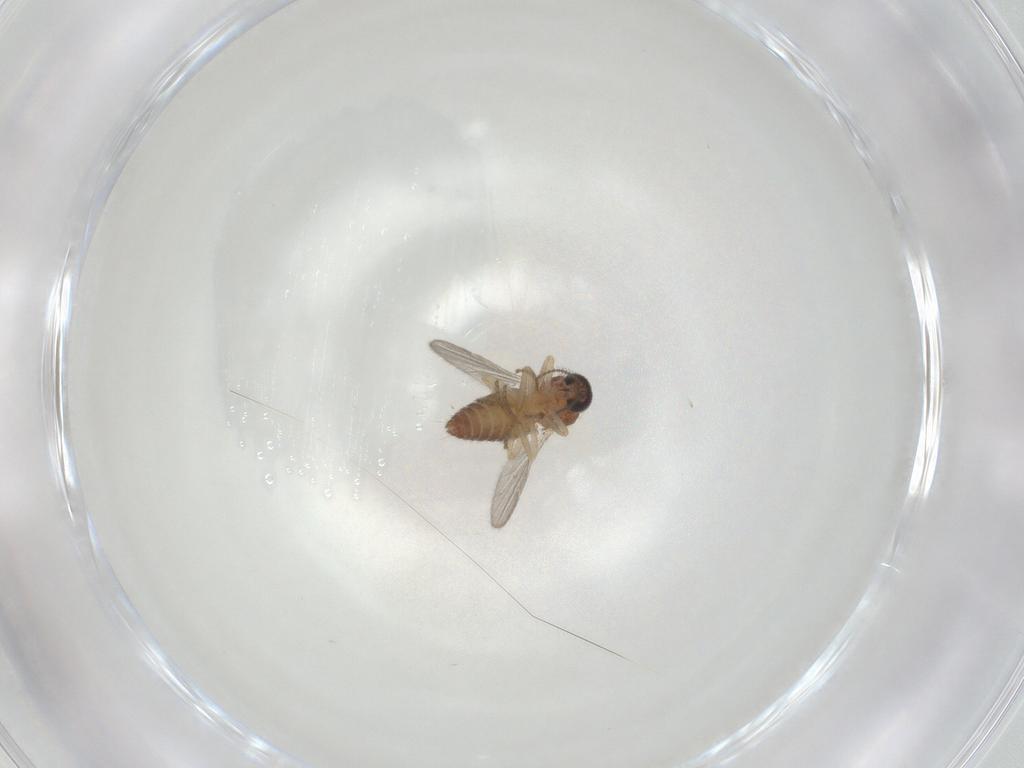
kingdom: Animalia
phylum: Arthropoda
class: Insecta
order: Diptera
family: Ceratopogonidae
